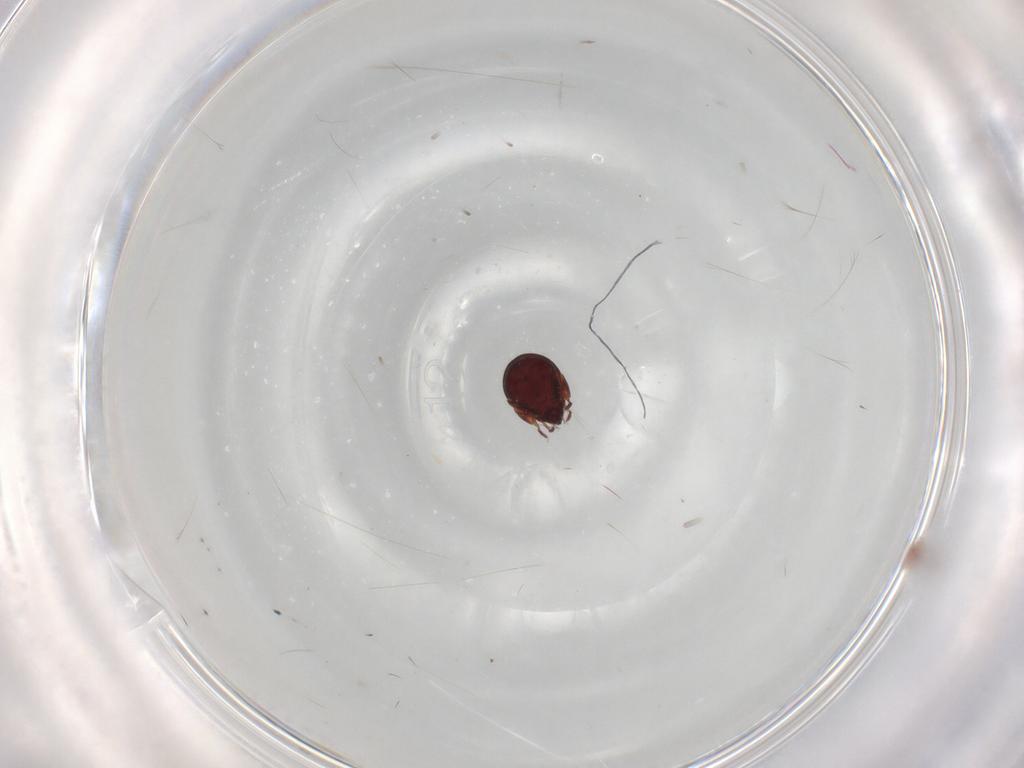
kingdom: Animalia
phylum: Arthropoda
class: Arachnida
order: Sarcoptiformes
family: Humerobatidae
